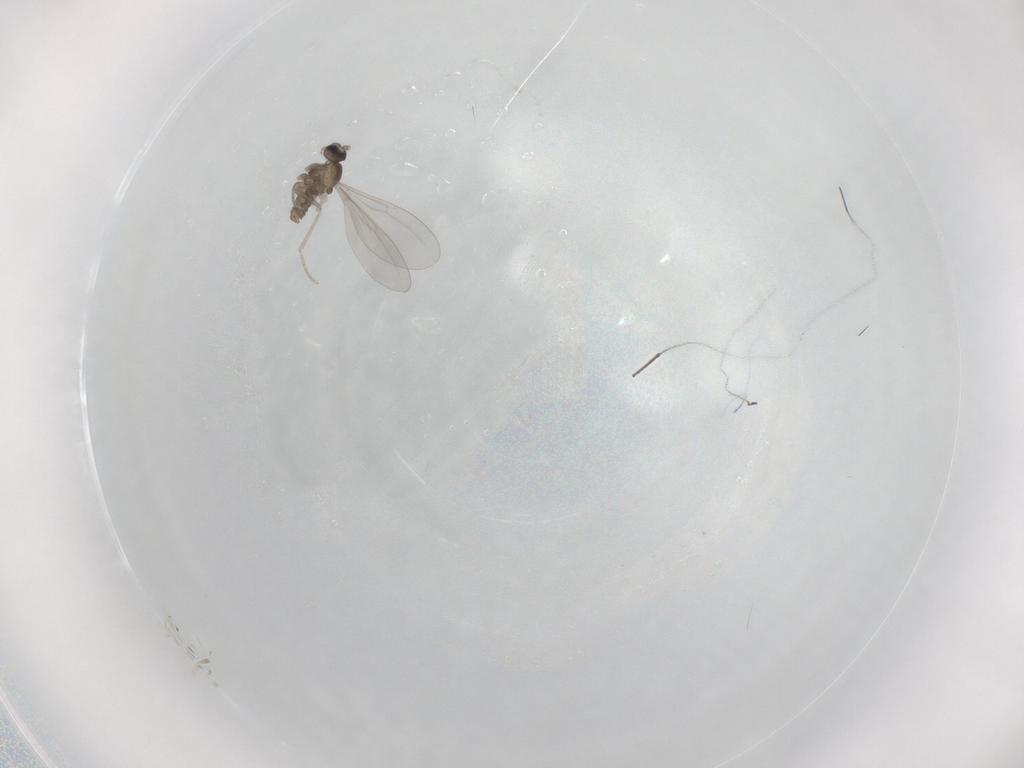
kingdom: Animalia
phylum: Arthropoda
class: Insecta
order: Diptera
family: Cecidomyiidae
